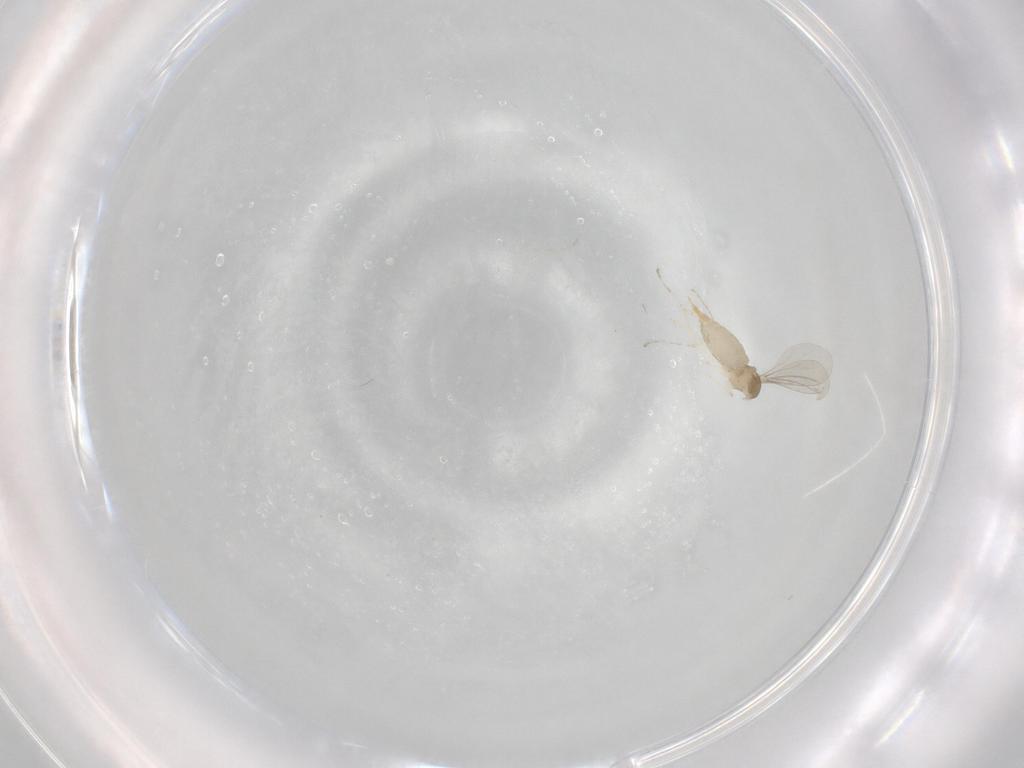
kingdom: Animalia
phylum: Arthropoda
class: Insecta
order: Diptera
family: Cecidomyiidae
